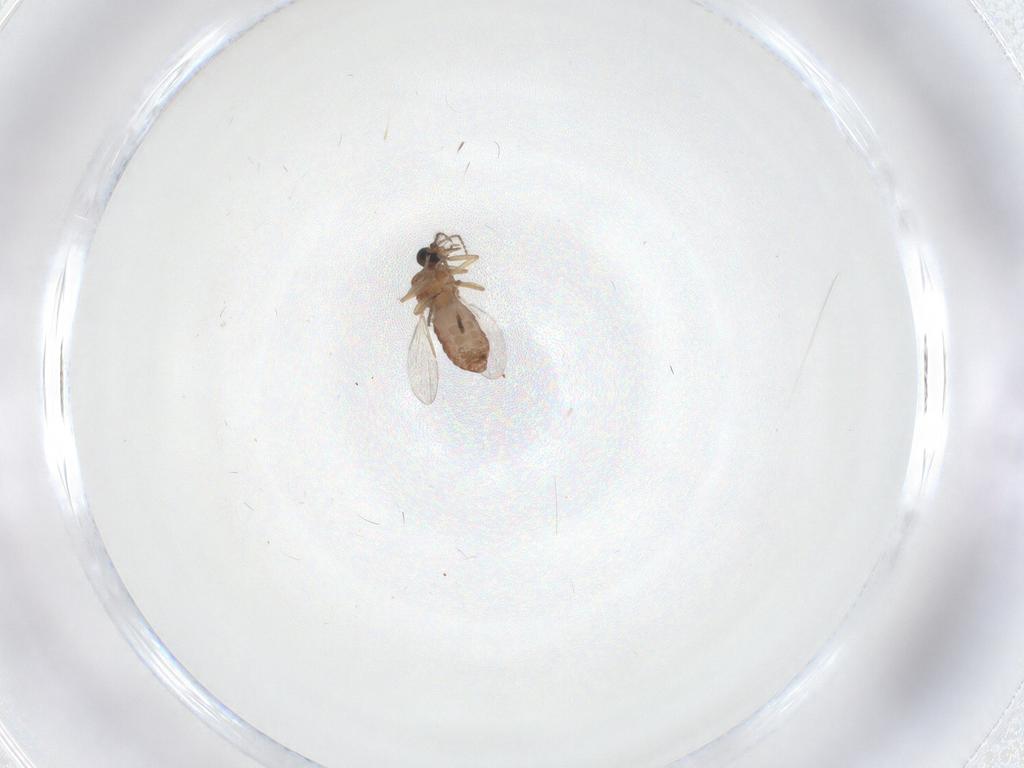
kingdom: Animalia
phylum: Arthropoda
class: Insecta
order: Diptera
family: Ceratopogonidae
